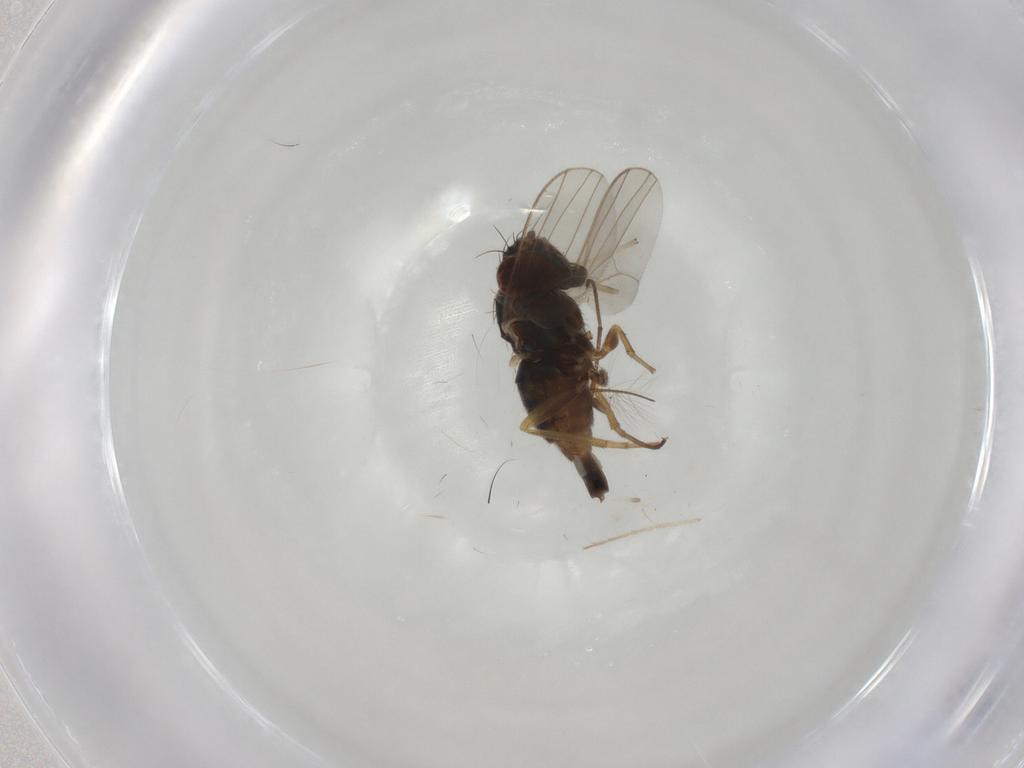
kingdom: Animalia
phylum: Arthropoda
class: Insecta
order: Diptera
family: Dolichopodidae
